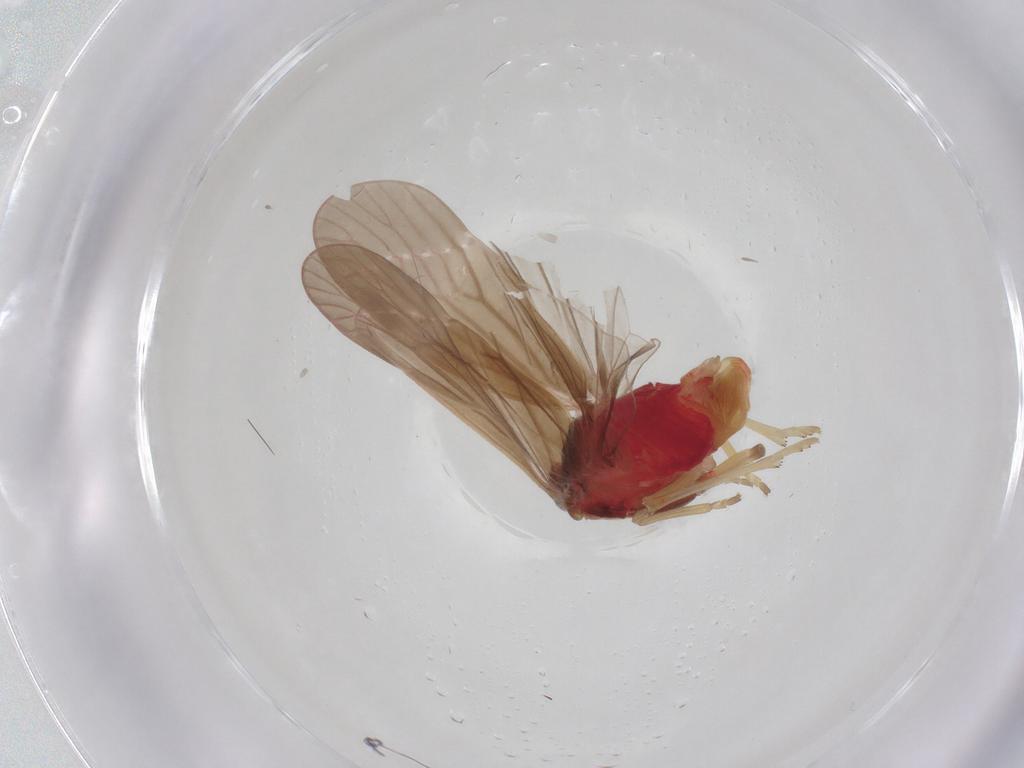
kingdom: Animalia
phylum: Arthropoda
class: Insecta
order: Hemiptera
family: Derbidae
